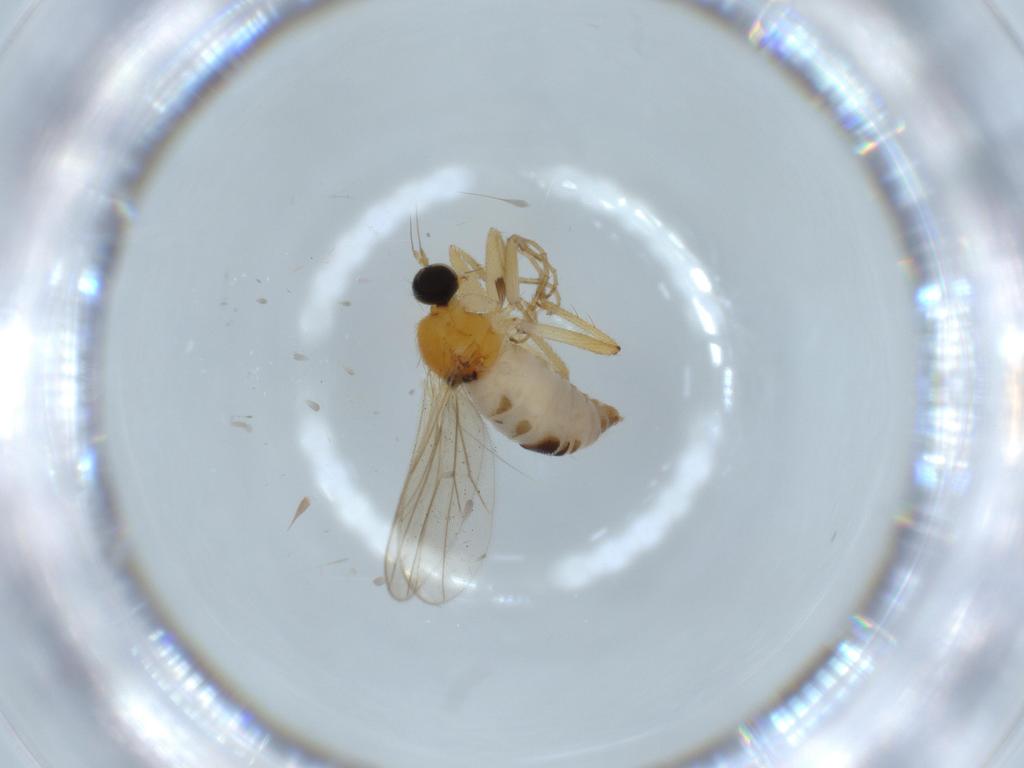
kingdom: Animalia
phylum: Arthropoda
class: Insecta
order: Diptera
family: Hybotidae
